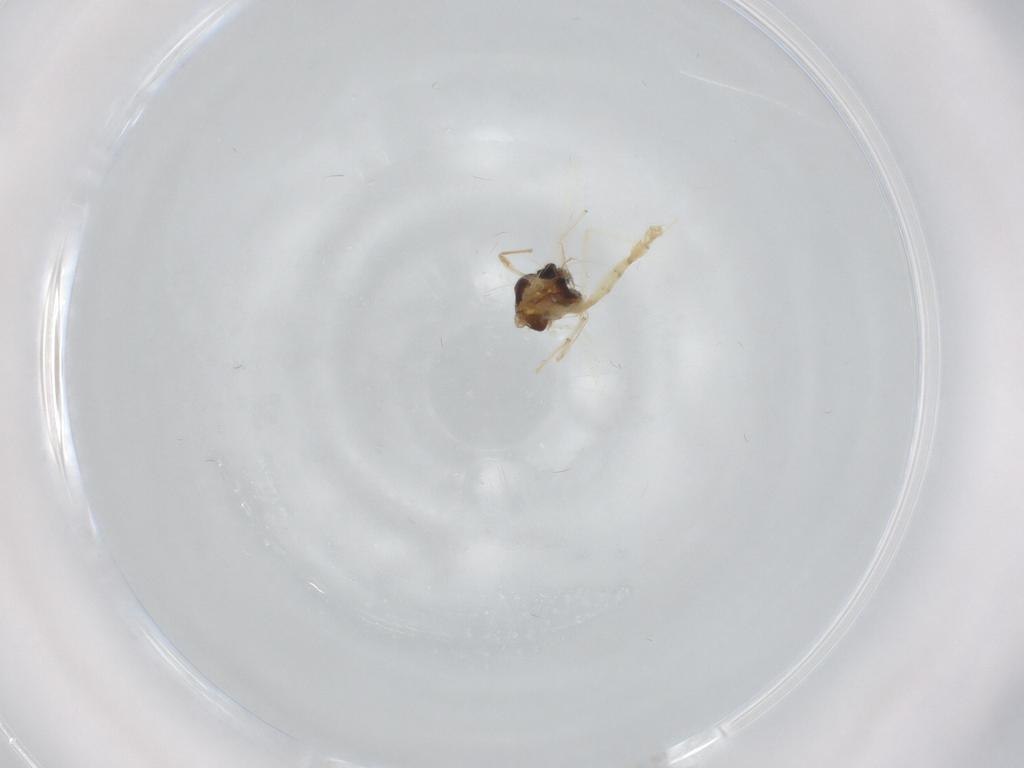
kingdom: Animalia
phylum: Arthropoda
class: Insecta
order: Diptera
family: Chironomidae
